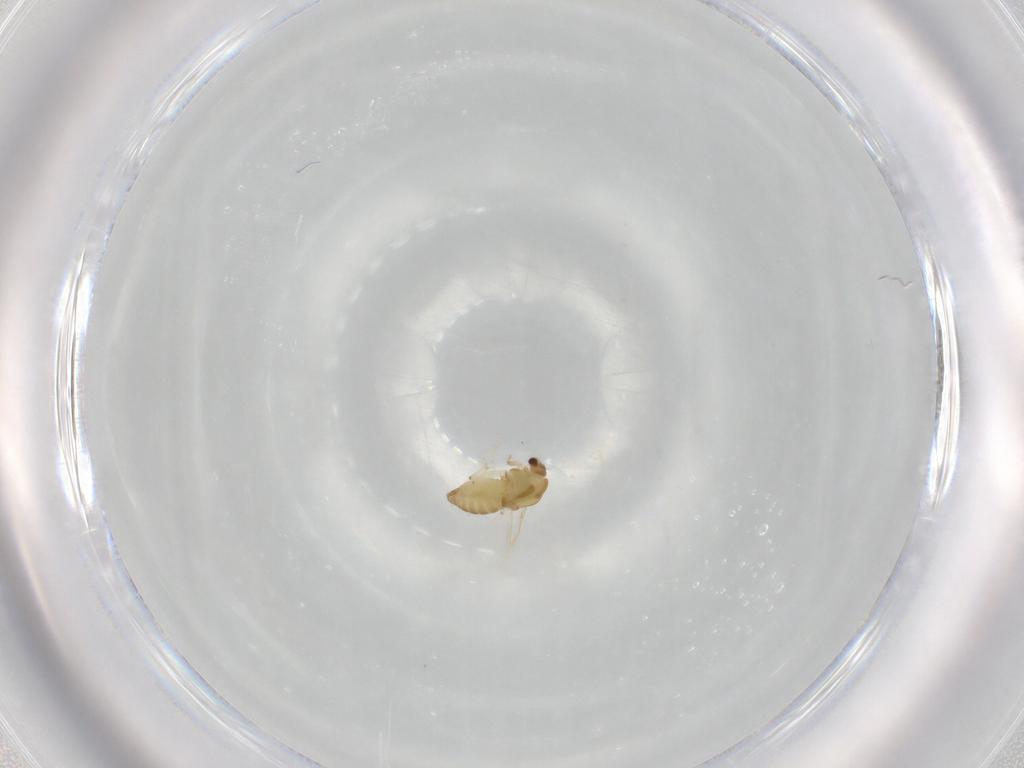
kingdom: Animalia
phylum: Arthropoda
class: Insecta
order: Diptera
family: Chironomidae
